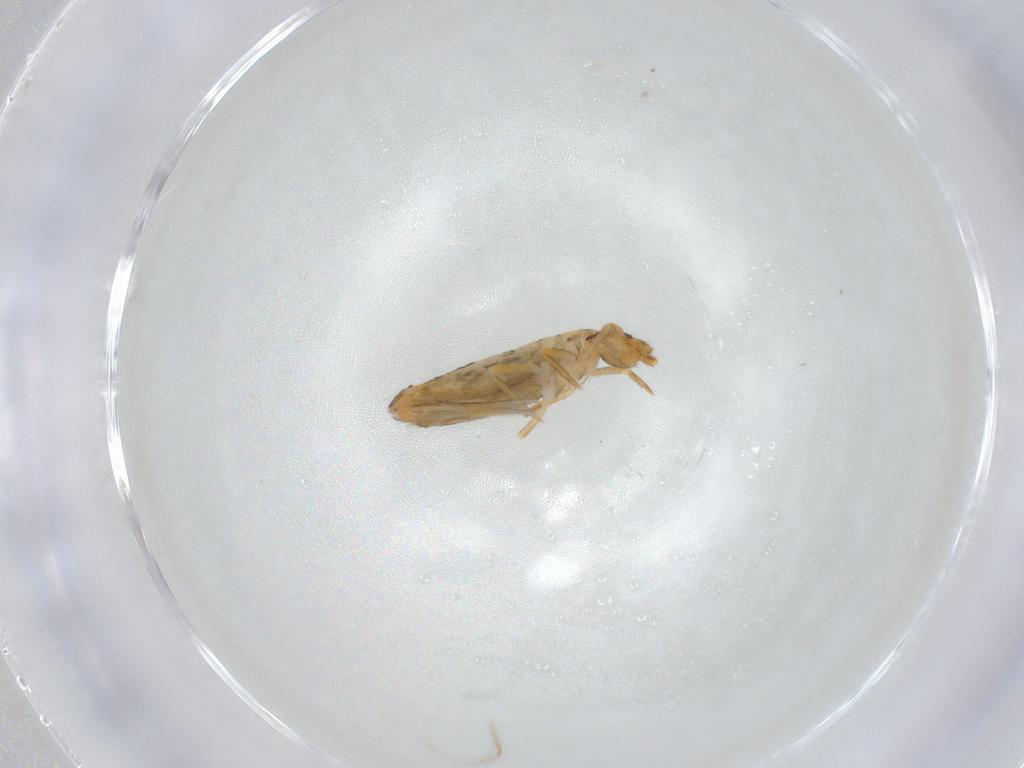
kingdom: Animalia
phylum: Arthropoda
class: Collembola
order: Entomobryomorpha
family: Entomobryidae
